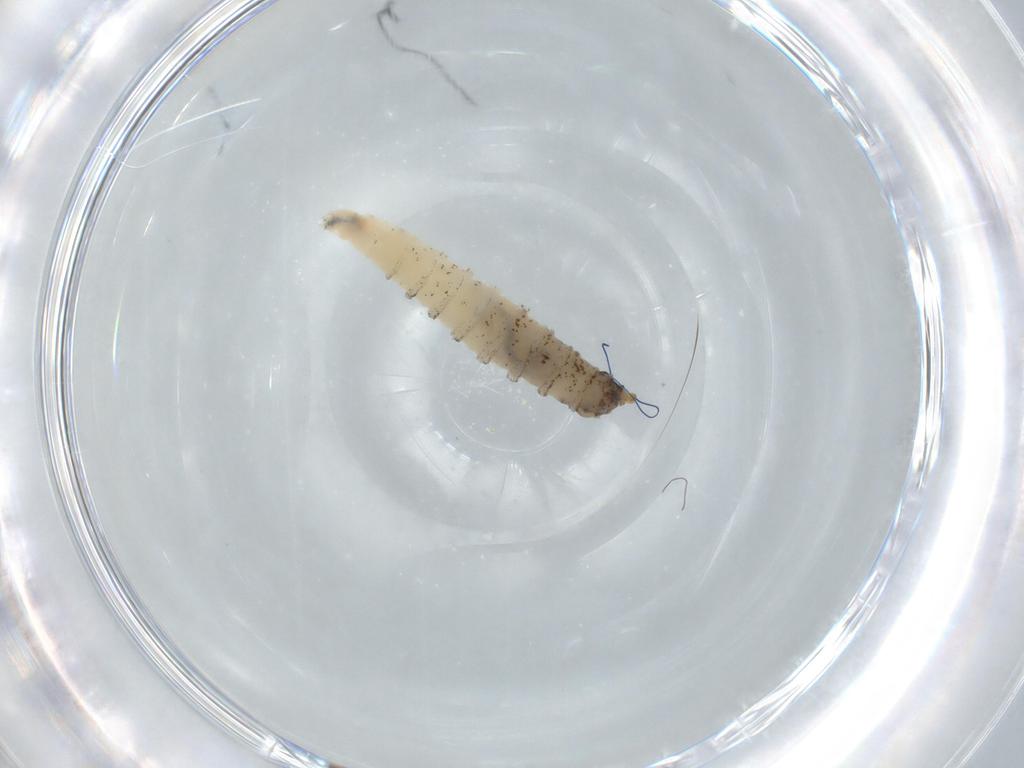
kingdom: Animalia
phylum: Arthropoda
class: Insecta
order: Diptera
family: Drosophilidae
